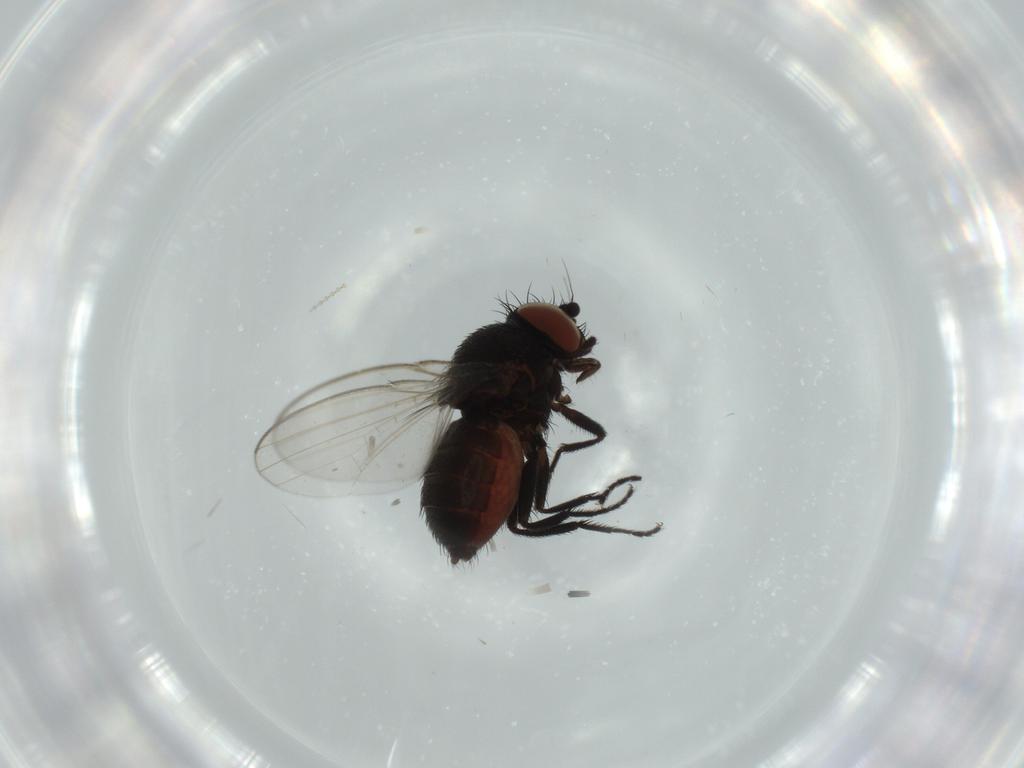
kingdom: Animalia
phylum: Arthropoda
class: Insecta
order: Diptera
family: Milichiidae
